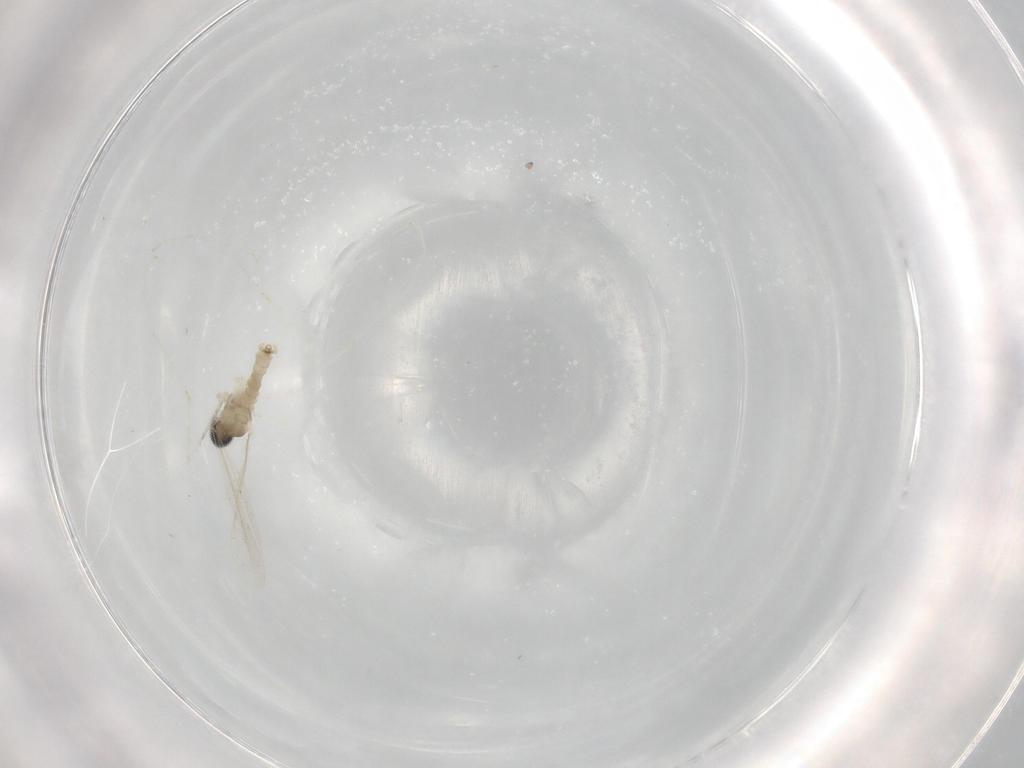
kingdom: Animalia
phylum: Arthropoda
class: Insecta
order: Diptera
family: Cecidomyiidae
